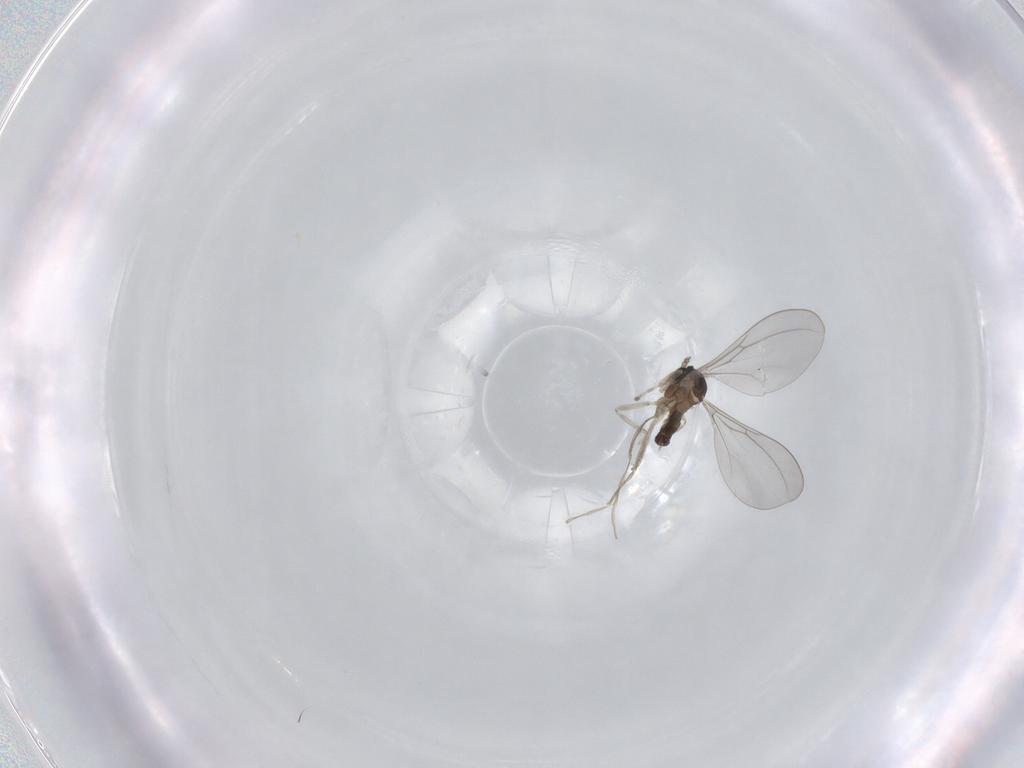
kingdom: Animalia
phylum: Arthropoda
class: Insecta
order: Diptera
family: Cecidomyiidae
